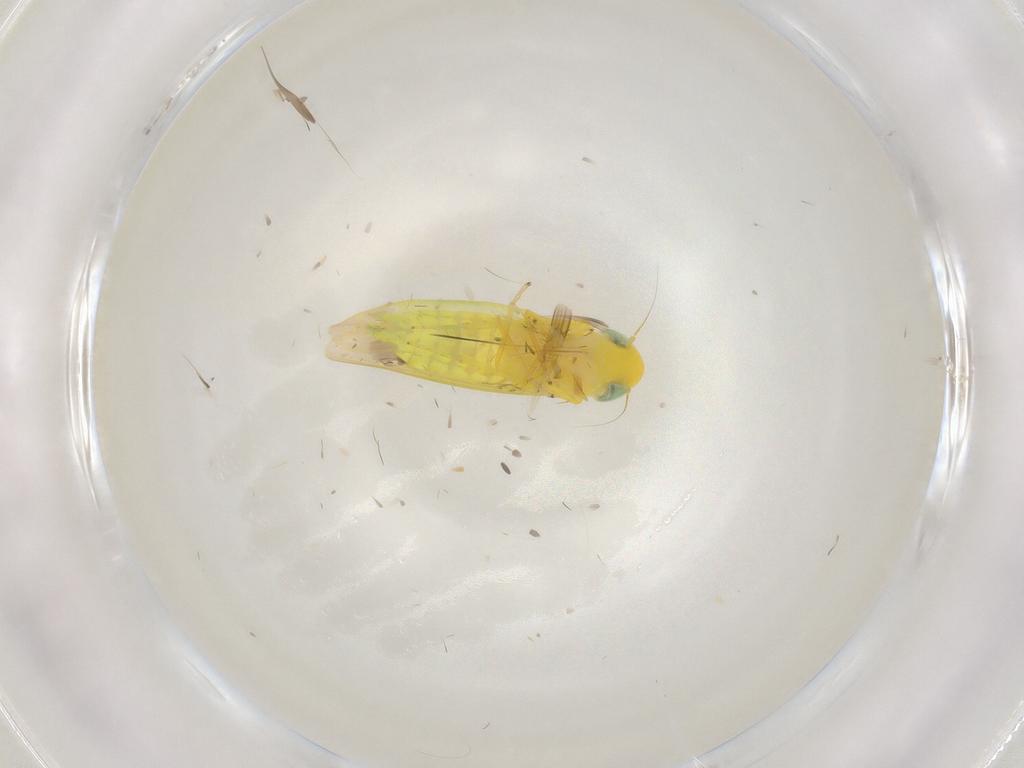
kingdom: Animalia
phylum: Arthropoda
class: Insecta
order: Hemiptera
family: Cicadellidae
